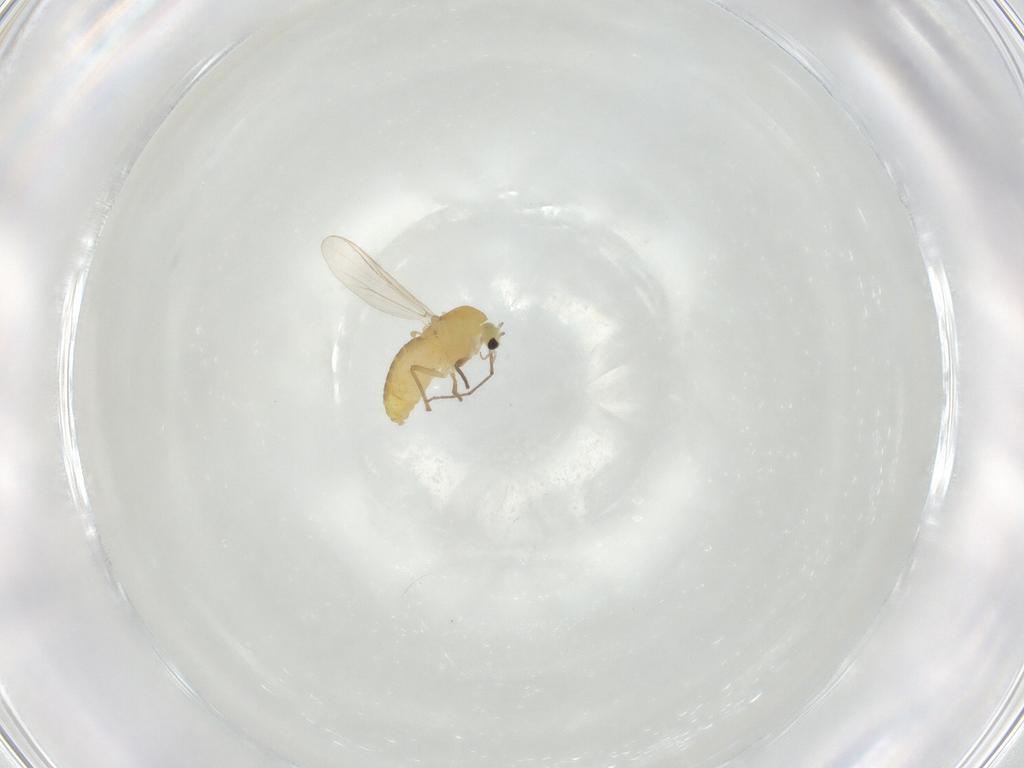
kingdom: Animalia
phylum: Arthropoda
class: Insecta
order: Diptera
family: Chironomidae
